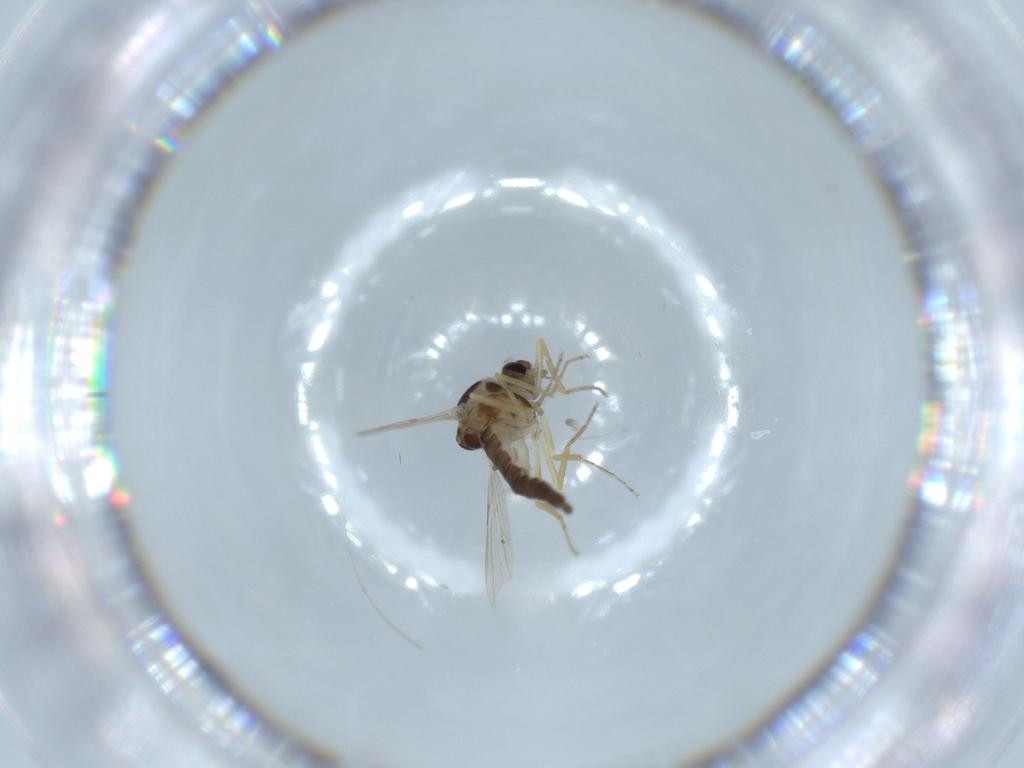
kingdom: Animalia
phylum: Arthropoda
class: Insecta
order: Diptera
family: Ceratopogonidae
